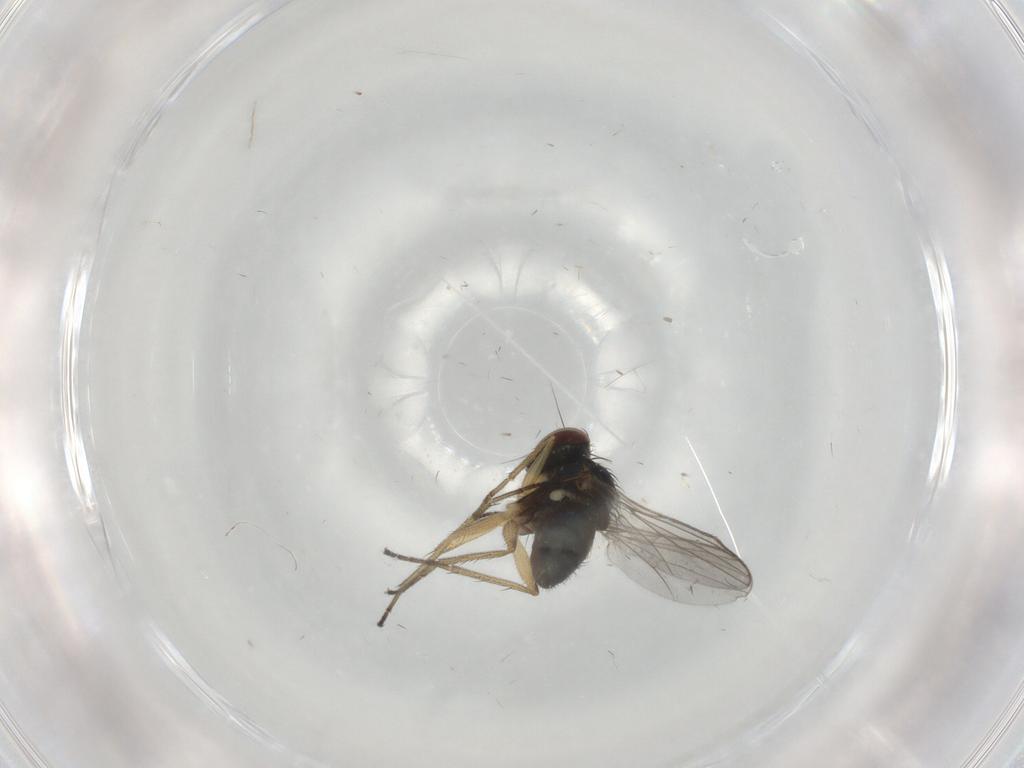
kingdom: Animalia
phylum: Arthropoda
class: Insecta
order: Diptera
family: Dolichopodidae
